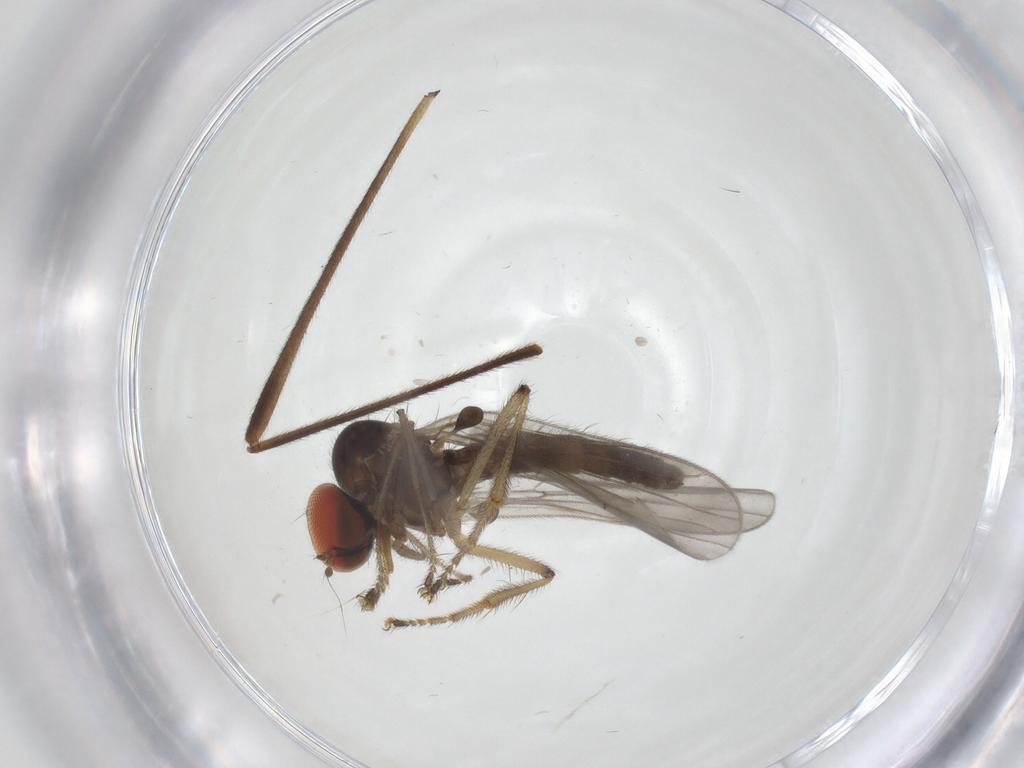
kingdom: Animalia
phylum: Arthropoda
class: Insecta
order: Diptera
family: Hybotidae
